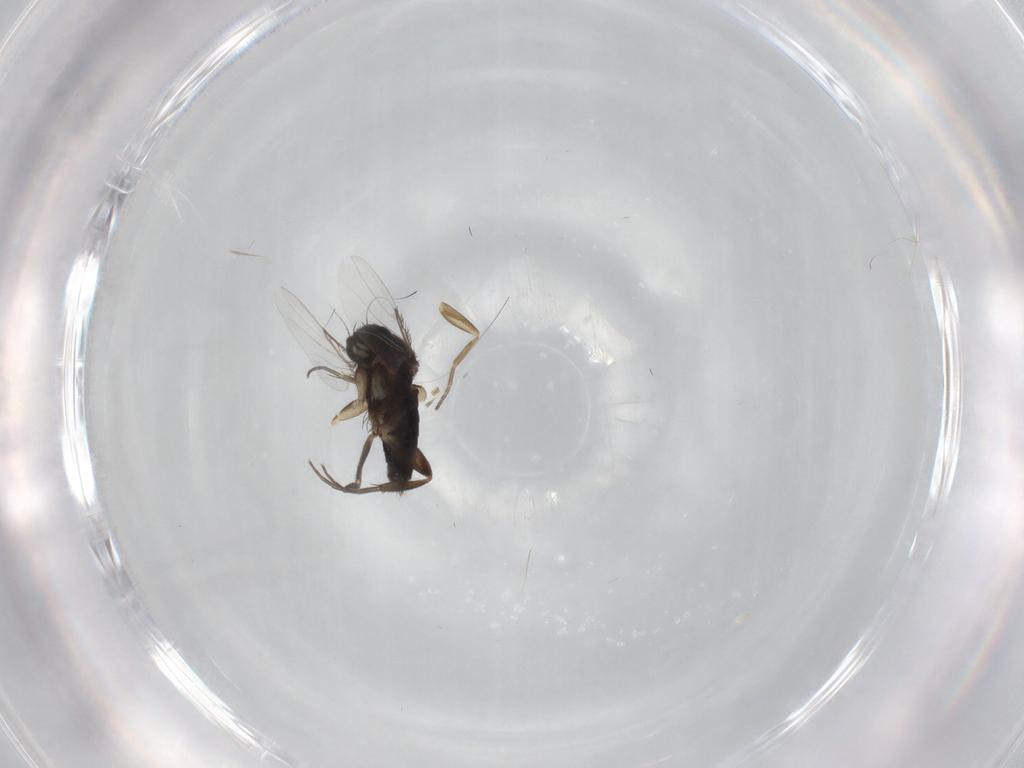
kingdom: Animalia
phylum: Arthropoda
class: Insecta
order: Diptera
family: Phoridae
